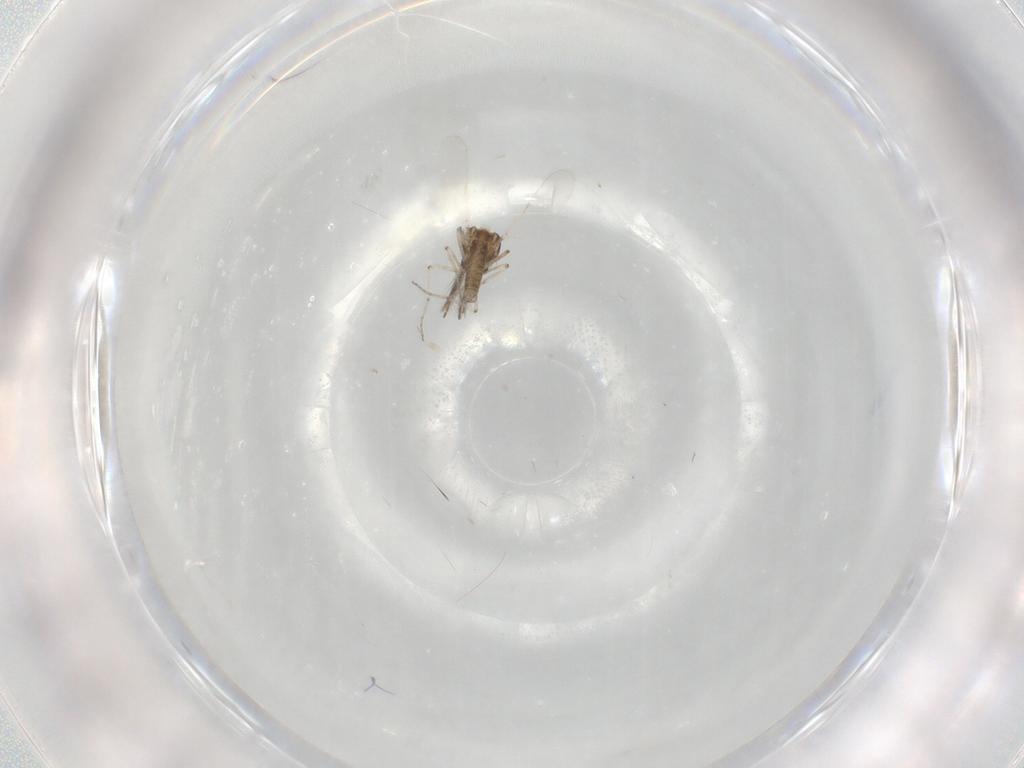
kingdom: Animalia
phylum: Arthropoda
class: Insecta
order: Diptera
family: Ceratopogonidae
